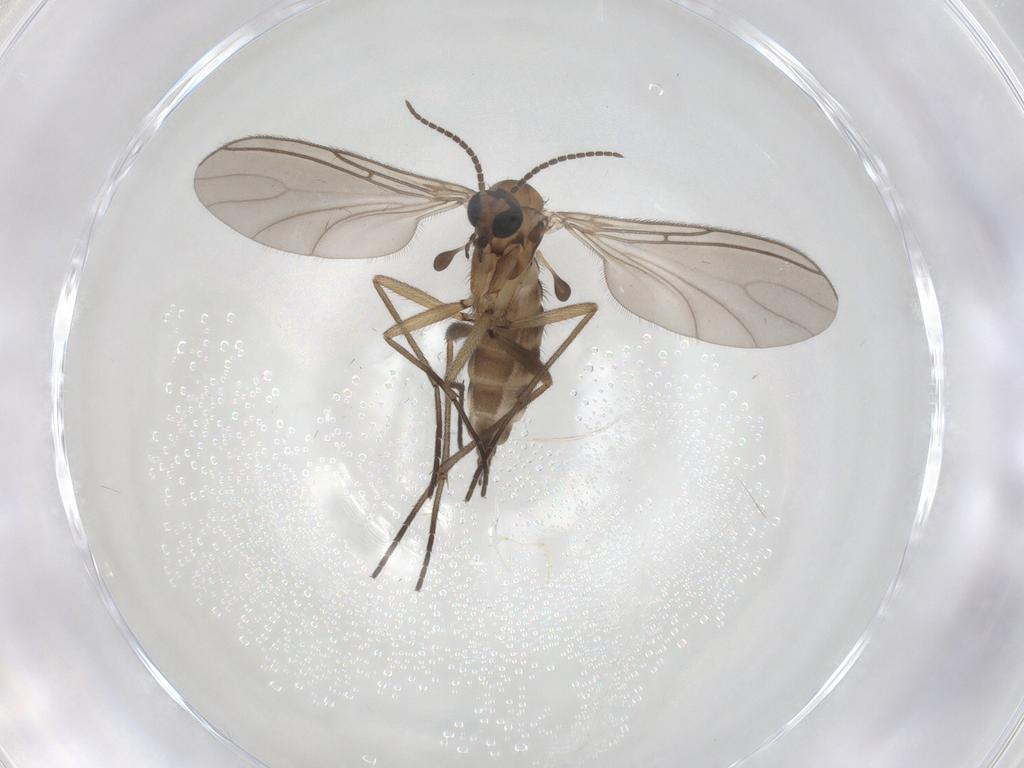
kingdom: Animalia
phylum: Arthropoda
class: Insecta
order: Diptera
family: Sciaridae
